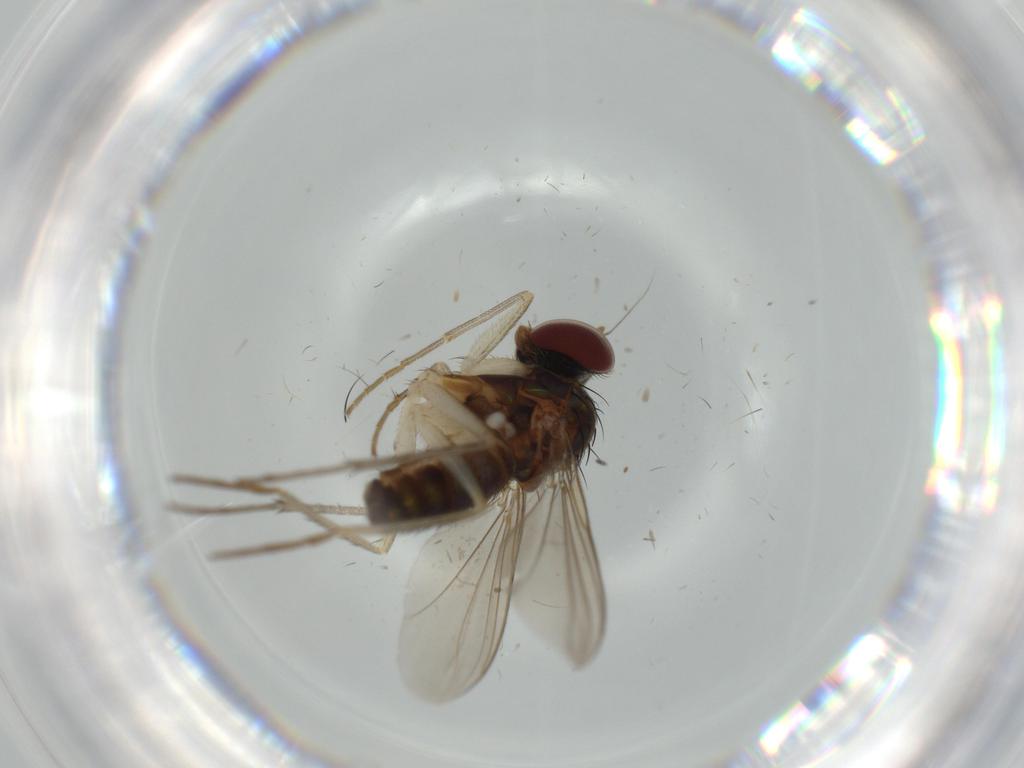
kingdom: Animalia
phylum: Arthropoda
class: Insecta
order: Diptera
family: Dolichopodidae
